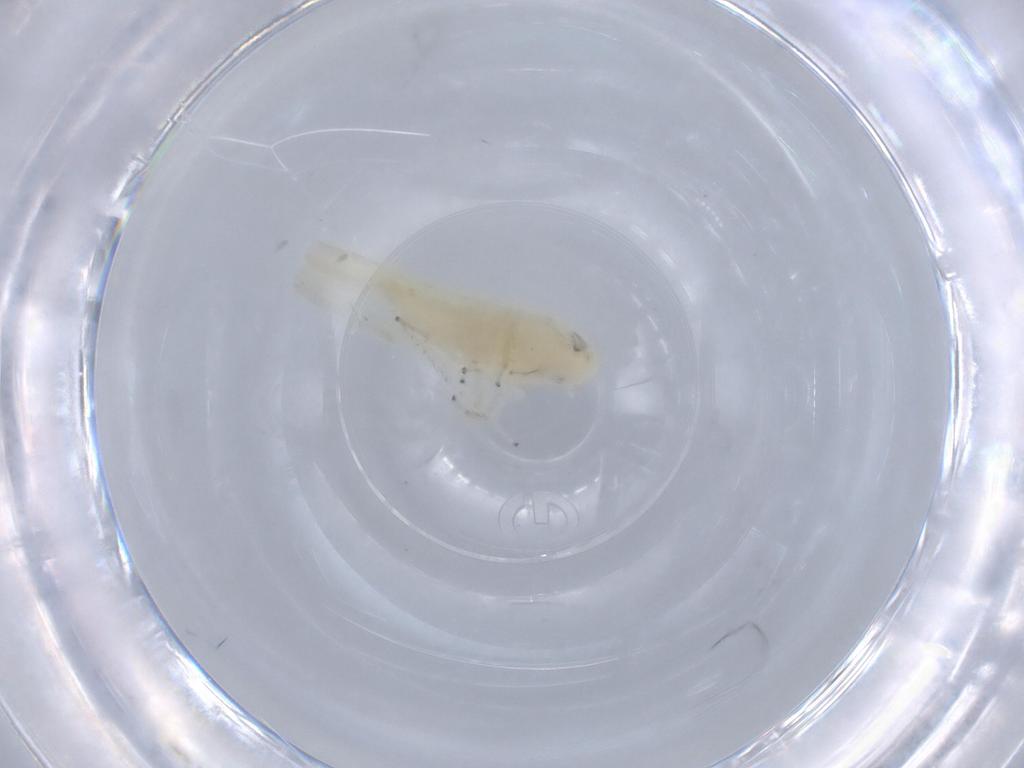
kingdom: Animalia
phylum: Arthropoda
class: Insecta
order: Hemiptera
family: Cicadellidae
